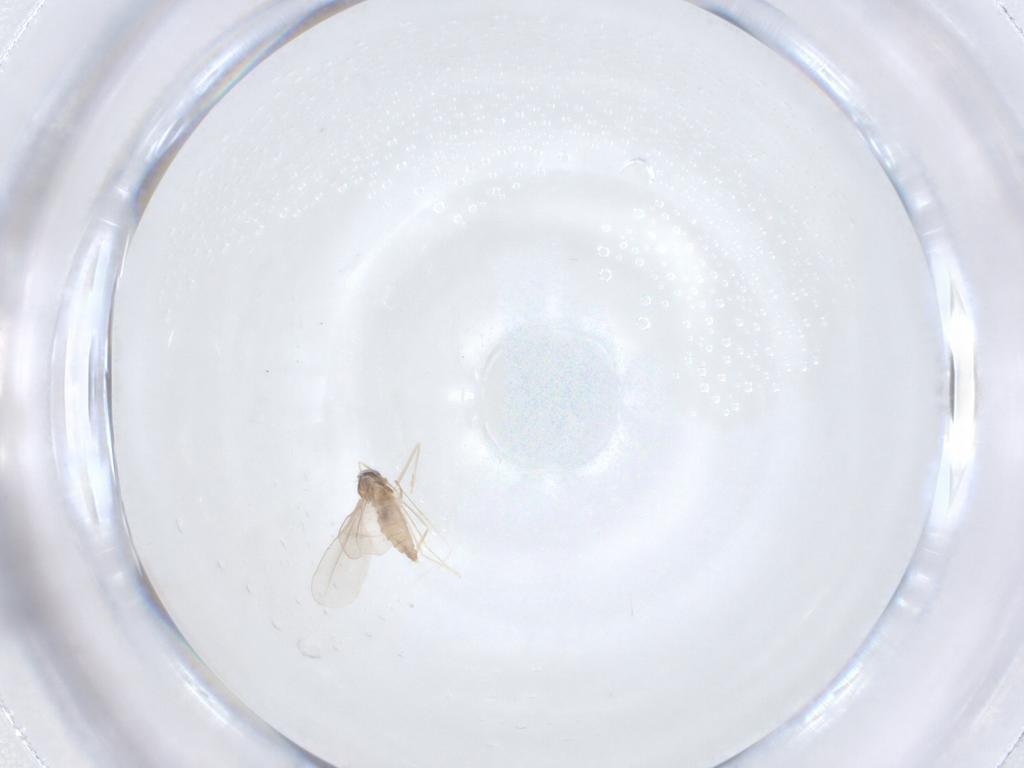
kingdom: Animalia
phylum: Arthropoda
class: Insecta
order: Diptera
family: Cecidomyiidae
